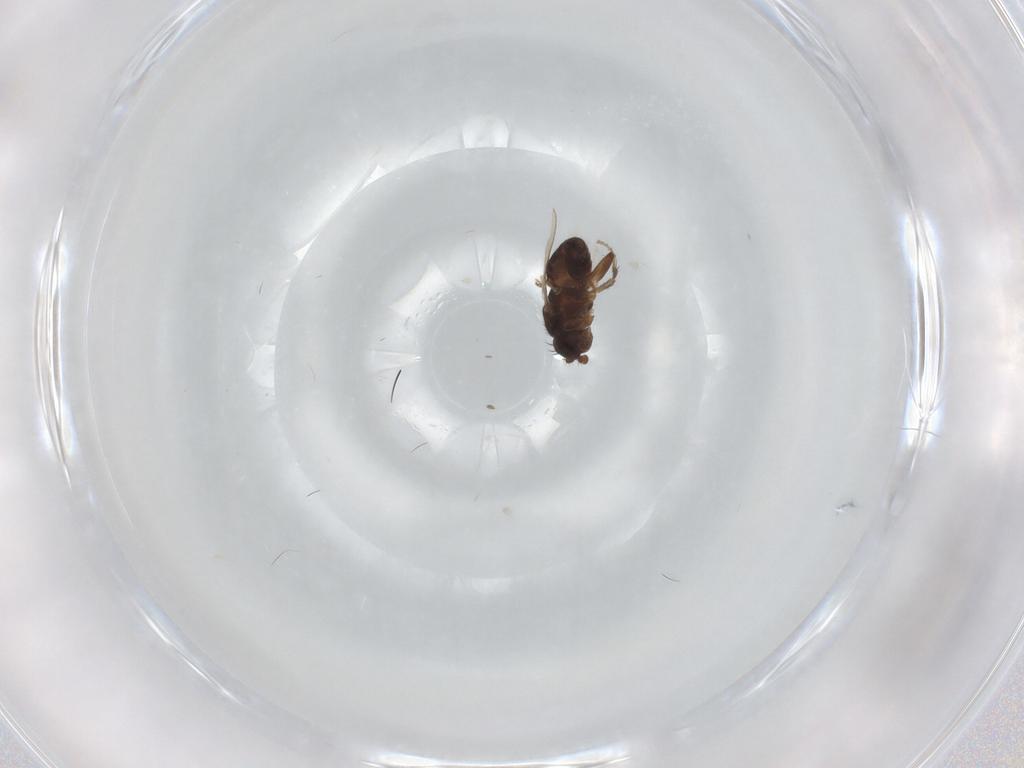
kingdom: Animalia
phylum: Arthropoda
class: Insecta
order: Diptera
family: Sphaeroceridae
